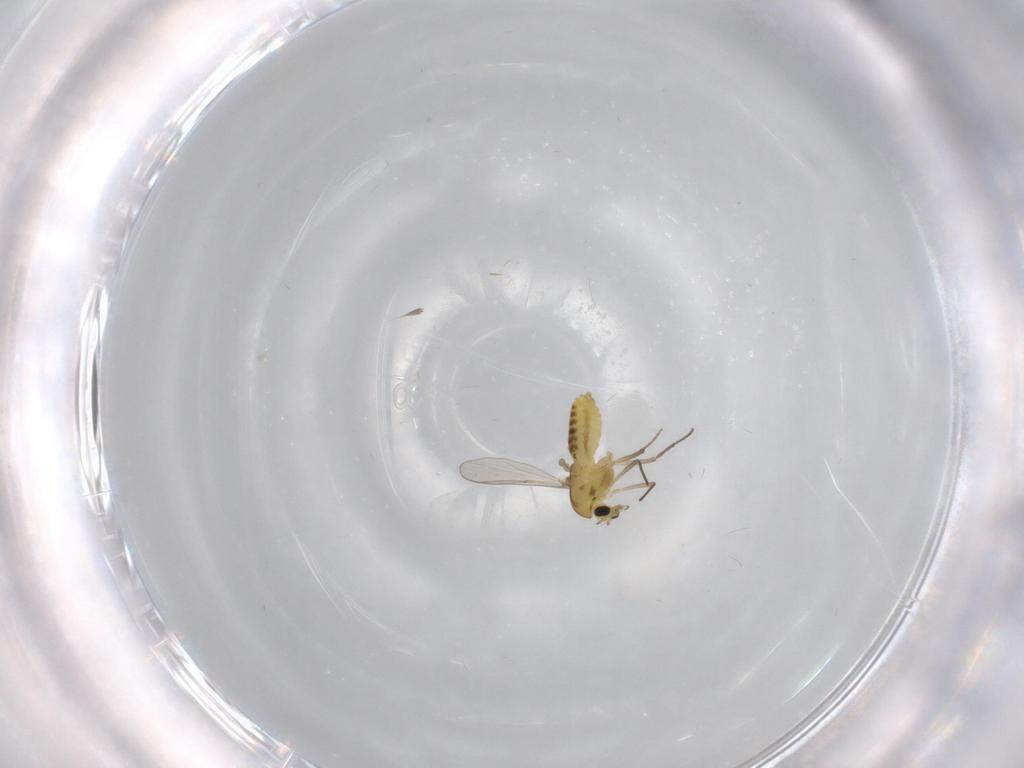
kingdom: Animalia
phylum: Arthropoda
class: Insecta
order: Diptera
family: Chironomidae
